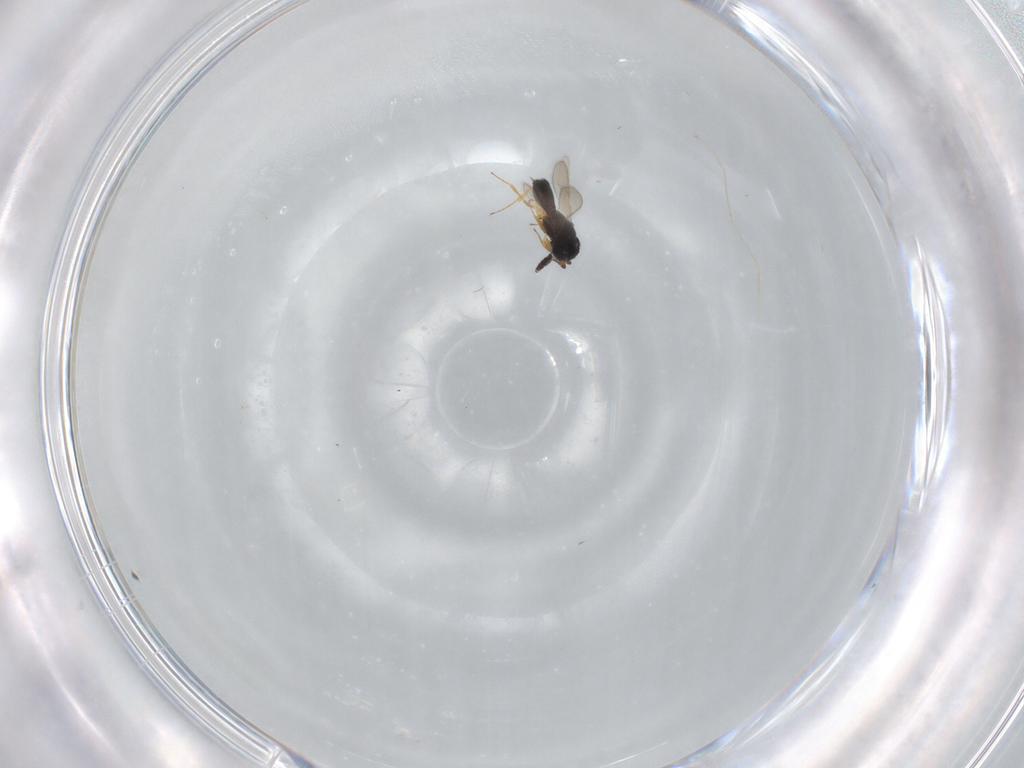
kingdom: Animalia
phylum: Arthropoda
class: Insecta
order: Hymenoptera
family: Scelionidae
